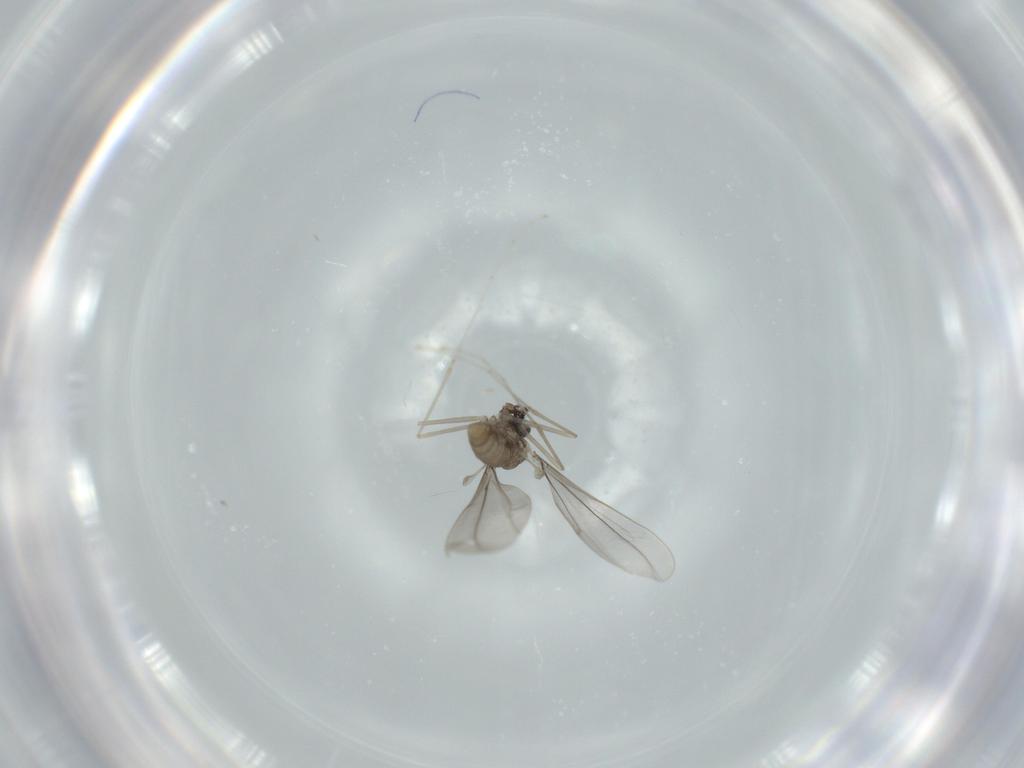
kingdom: Animalia
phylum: Arthropoda
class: Insecta
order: Diptera
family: Cecidomyiidae
